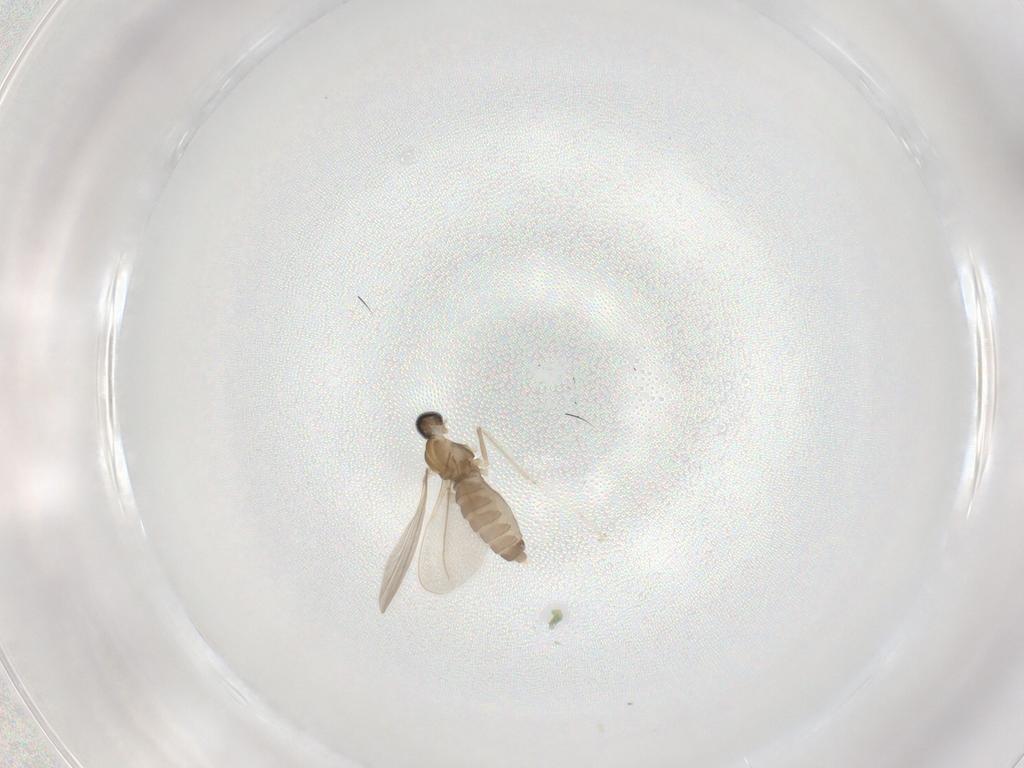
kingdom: Animalia
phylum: Arthropoda
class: Insecta
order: Diptera
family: Cecidomyiidae
